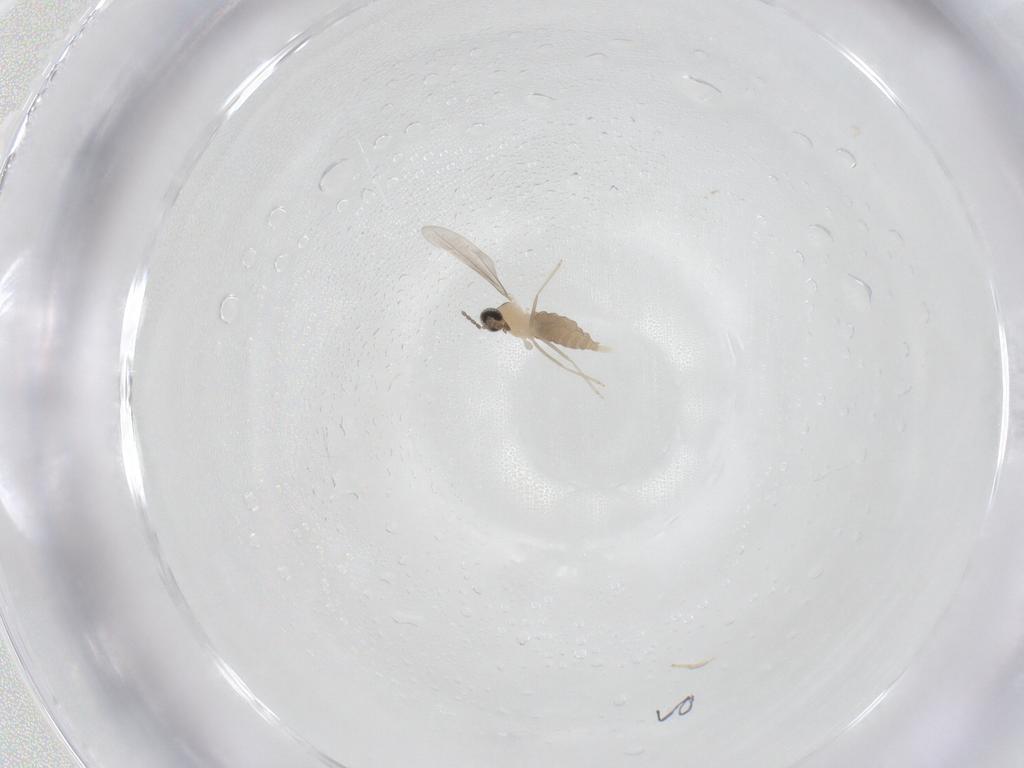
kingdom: Animalia
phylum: Arthropoda
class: Insecta
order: Diptera
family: Cecidomyiidae
